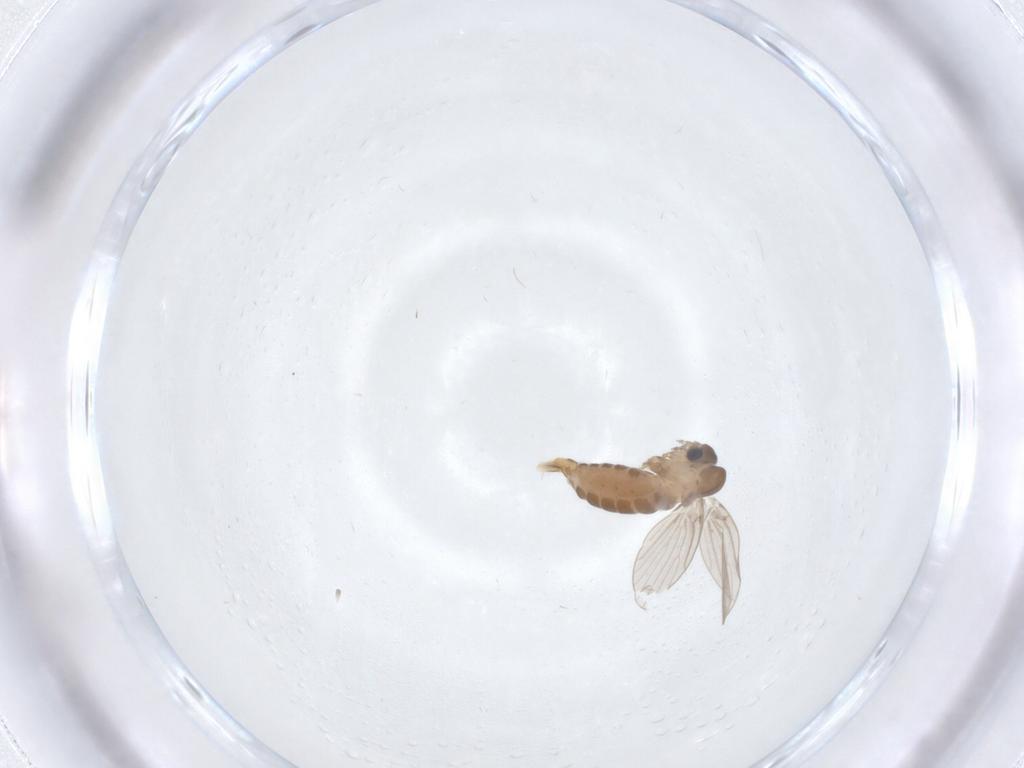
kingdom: Animalia
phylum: Arthropoda
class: Insecta
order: Diptera
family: Psychodidae
